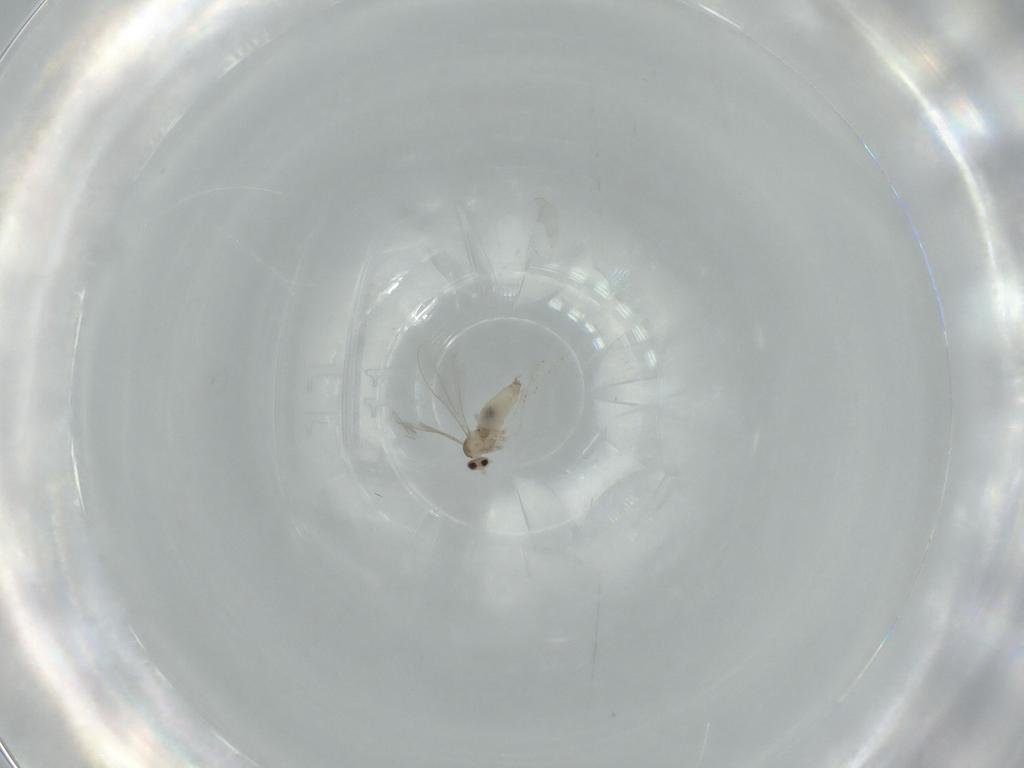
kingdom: Animalia
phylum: Arthropoda
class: Insecta
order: Diptera
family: Cecidomyiidae
